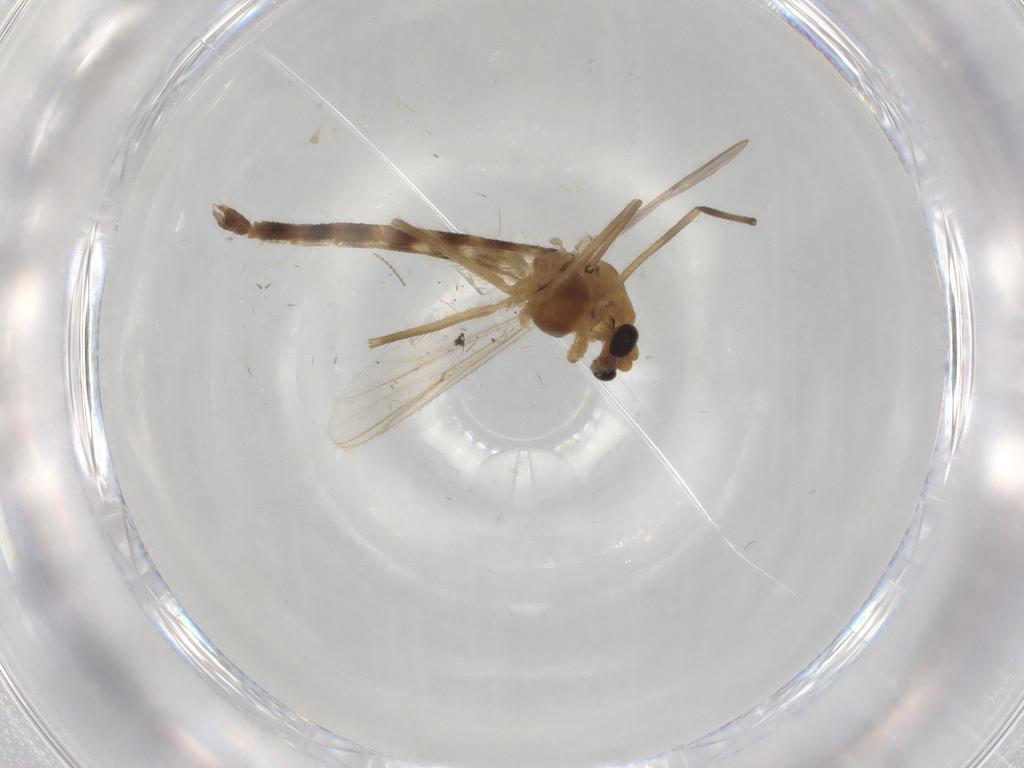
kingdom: Animalia
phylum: Arthropoda
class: Insecta
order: Diptera
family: Chironomidae
